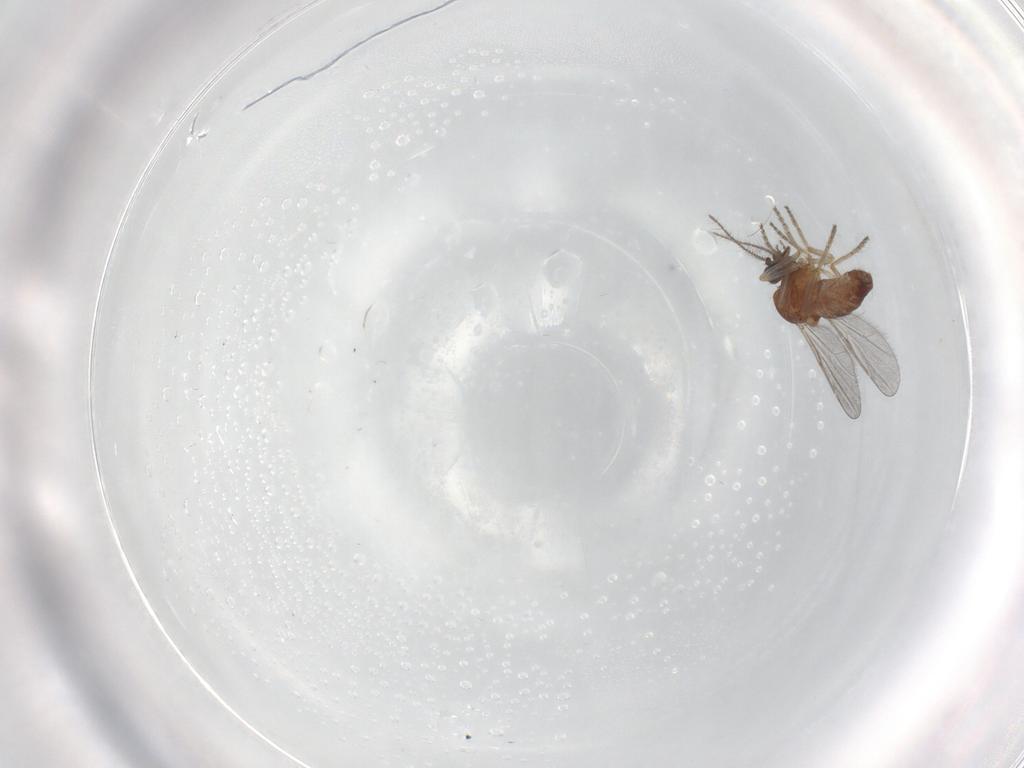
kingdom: Animalia
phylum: Arthropoda
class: Insecta
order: Diptera
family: Ceratopogonidae
